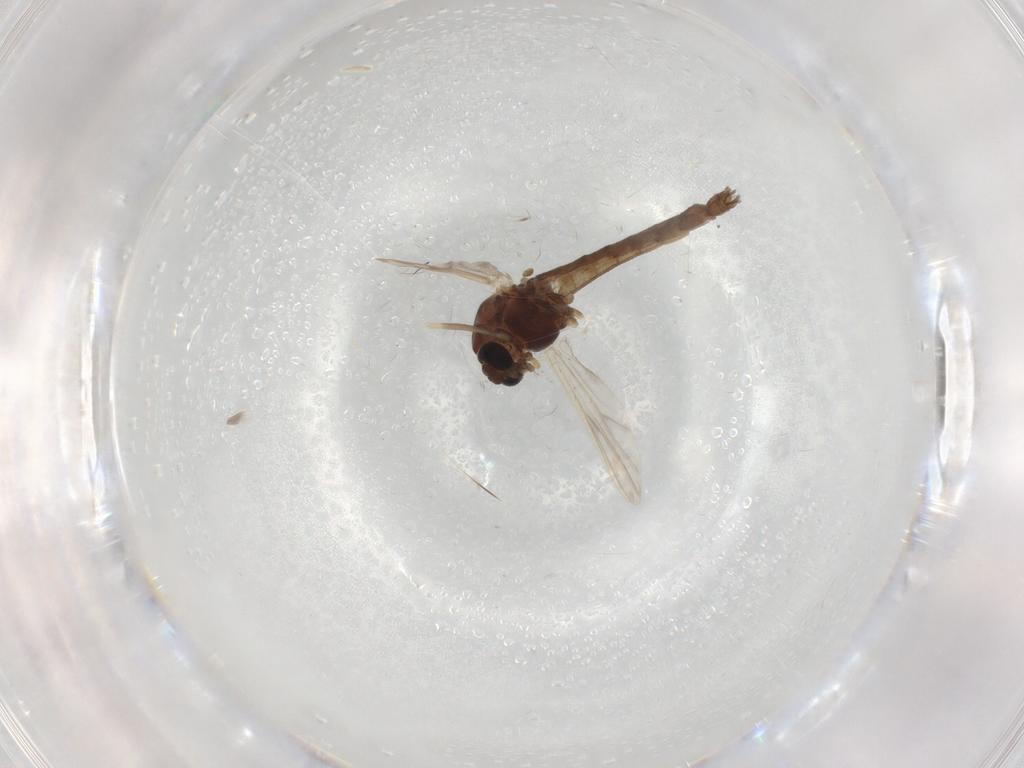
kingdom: Animalia
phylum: Arthropoda
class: Insecta
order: Diptera
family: Chironomidae
